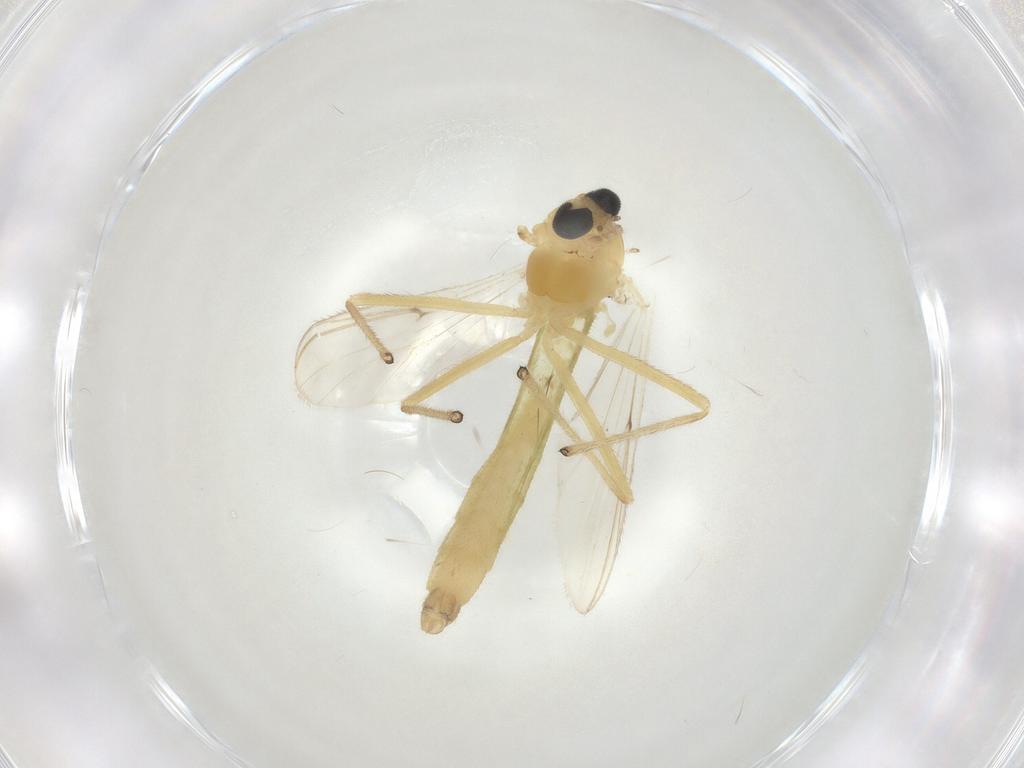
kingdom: Animalia
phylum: Arthropoda
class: Insecta
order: Diptera
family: Chironomidae
